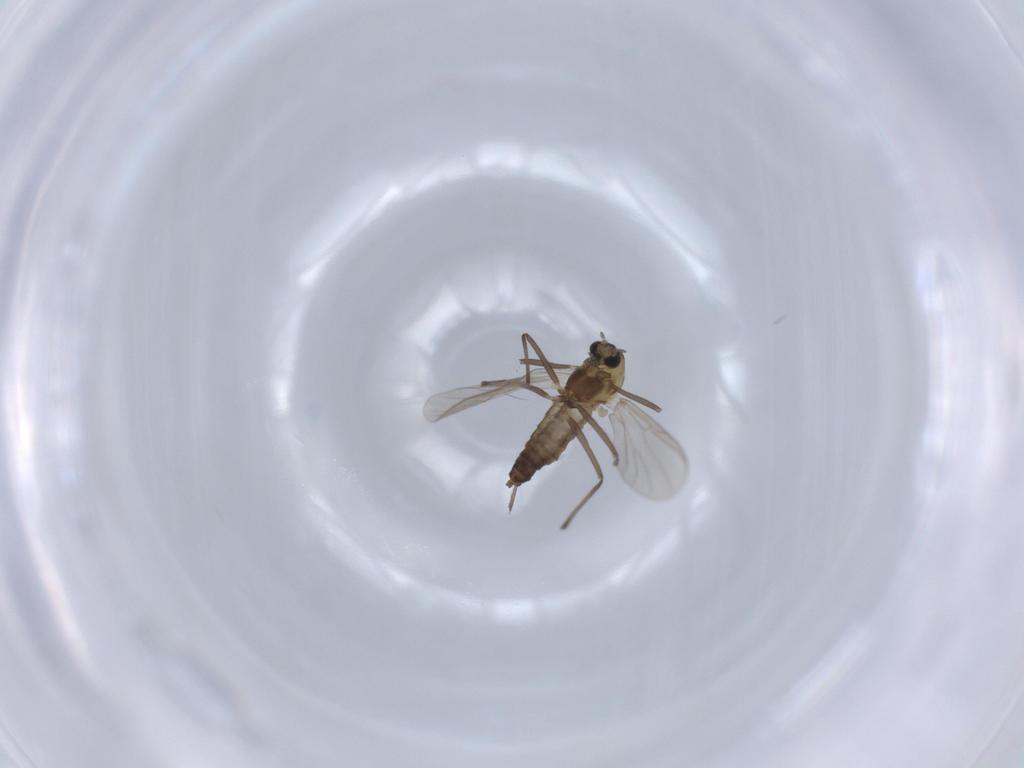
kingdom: Animalia
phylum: Arthropoda
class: Insecta
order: Diptera
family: Chironomidae
